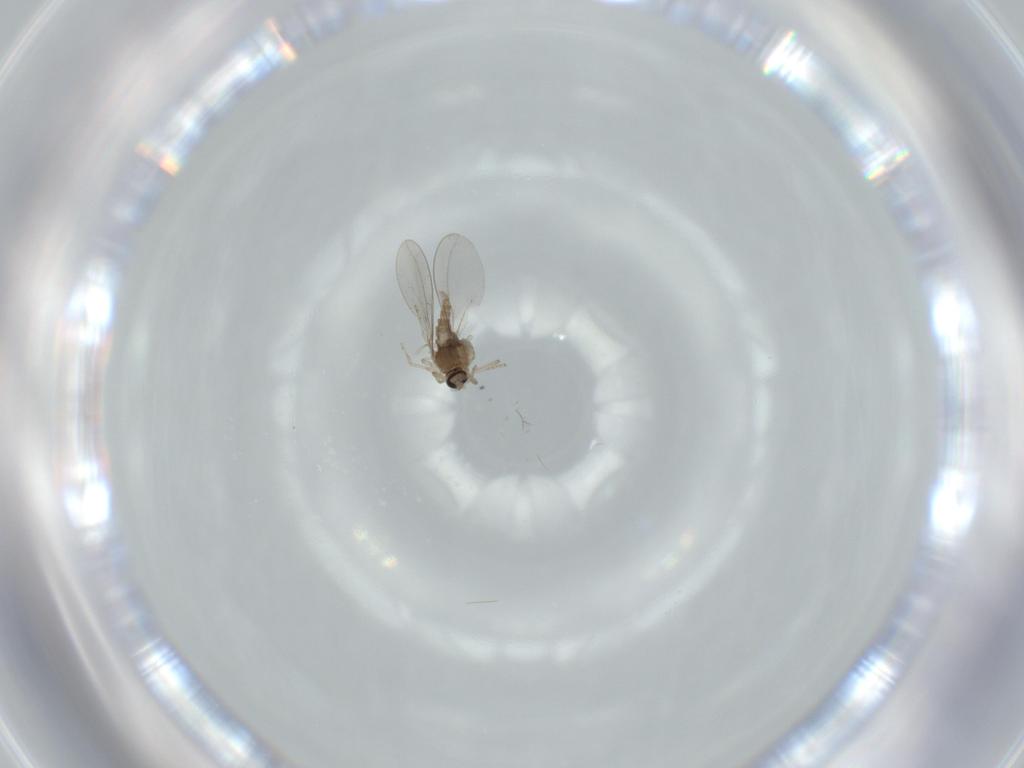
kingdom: Animalia
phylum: Arthropoda
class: Insecta
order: Diptera
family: Cecidomyiidae
